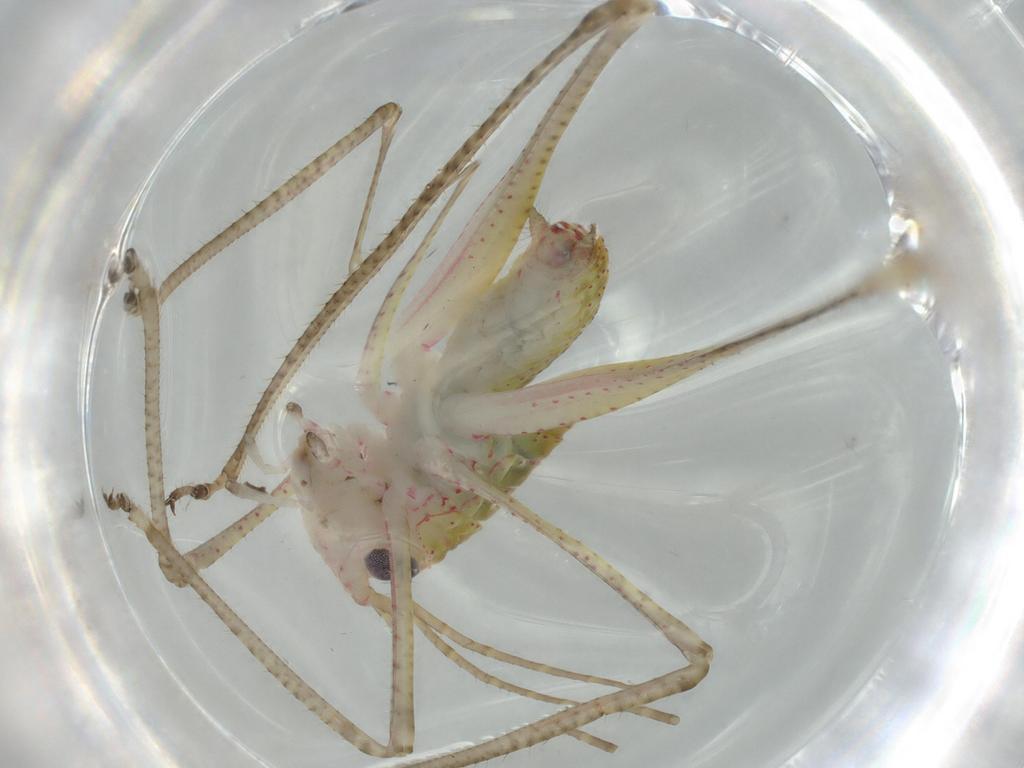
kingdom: Animalia
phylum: Arthropoda
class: Insecta
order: Orthoptera
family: Tettigoniidae
